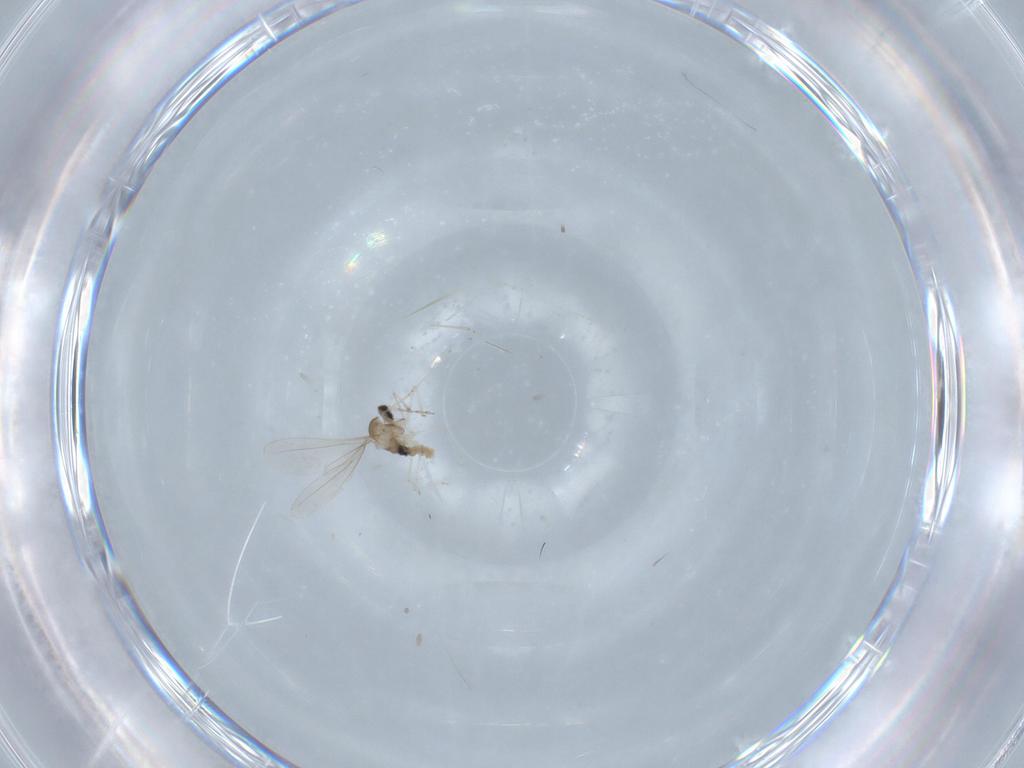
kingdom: Animalia
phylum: Arthropoda
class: Insecta
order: Diptera
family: Cecidomyiidae
